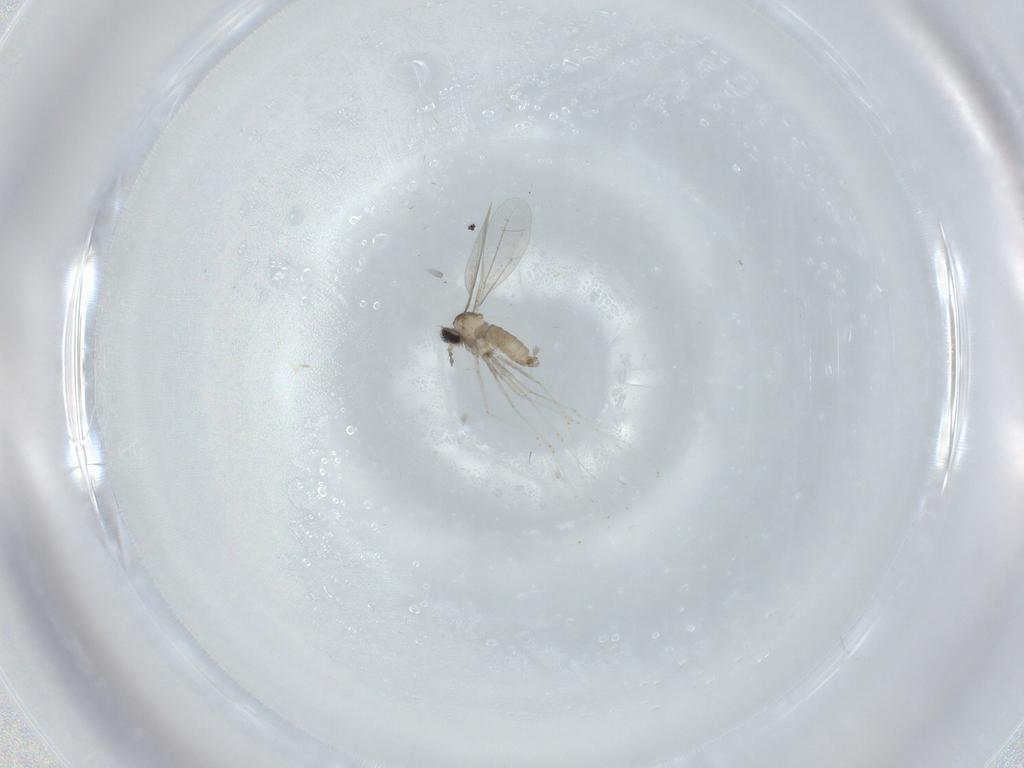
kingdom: Animalia
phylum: Arthropoda
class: Insecta
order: Diptera
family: Cecidomyiidae
